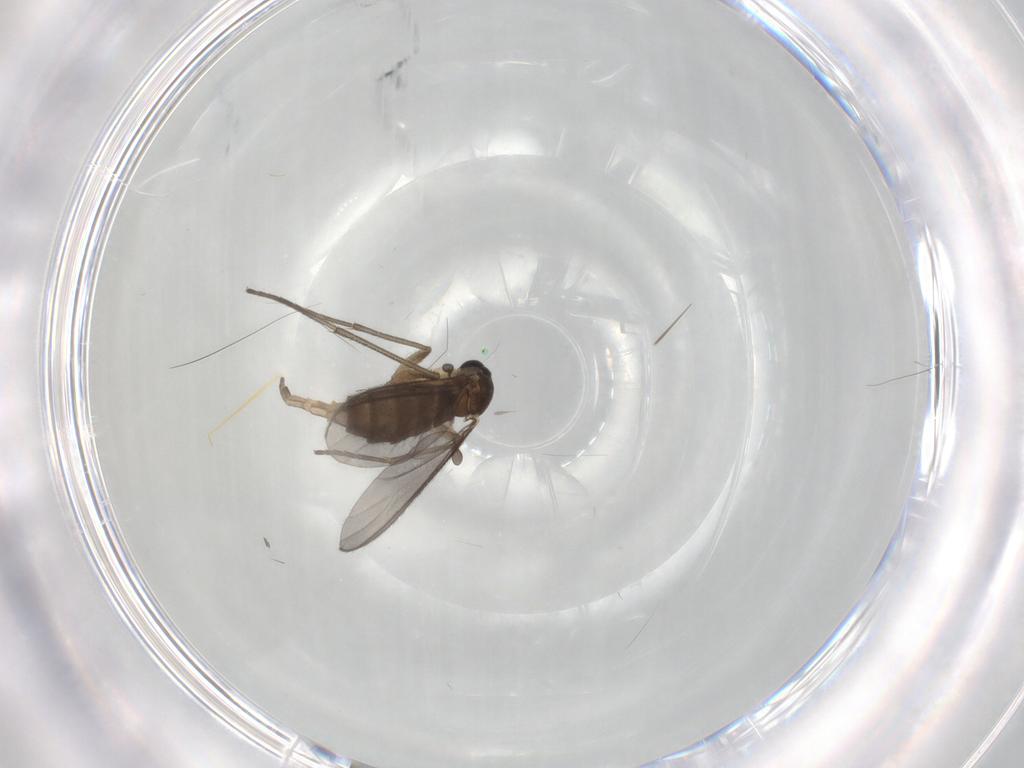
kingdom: Animalia
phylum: Arthropoda
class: Insecta
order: Diptera
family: Sciaridae
